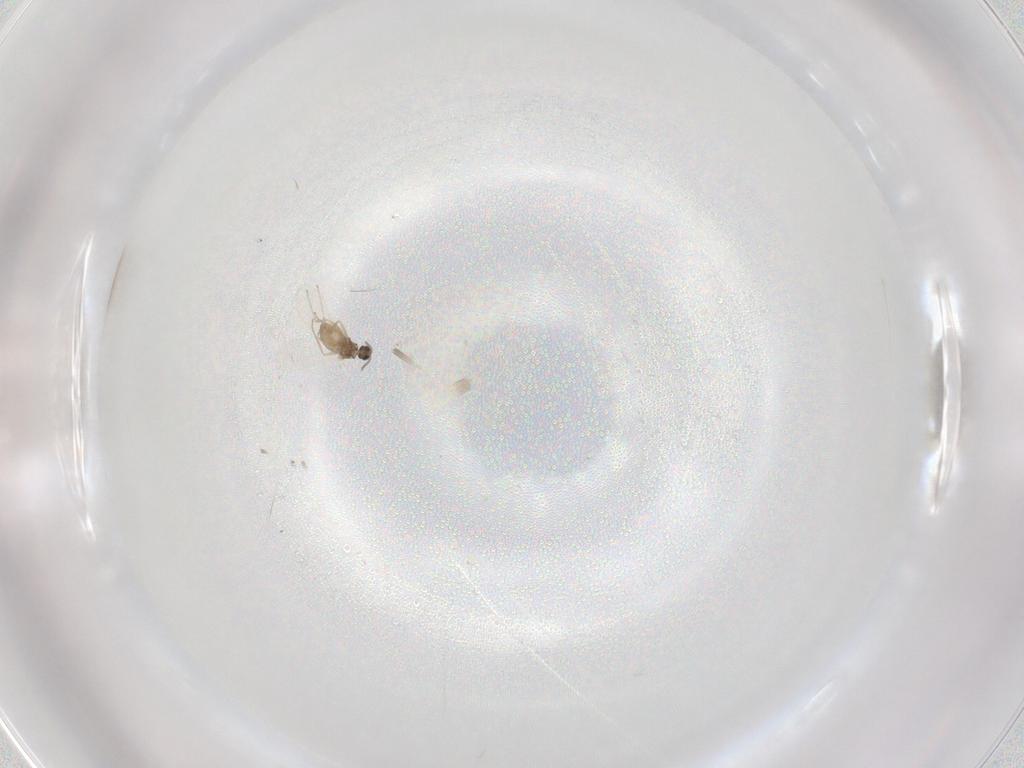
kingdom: Animalia
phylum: Arthropoda
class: Insecta
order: Diptera
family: Cecidomyiidae
